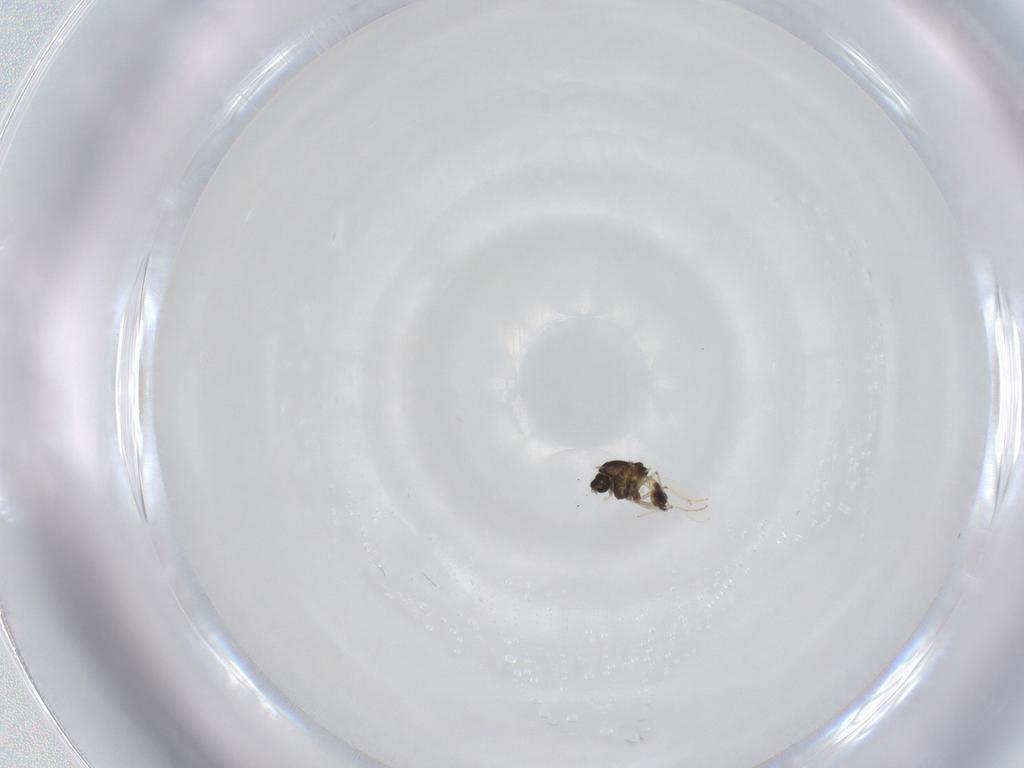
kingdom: Animalia
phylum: Arthropoda
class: Insecta
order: Diptera
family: Chironomidae
